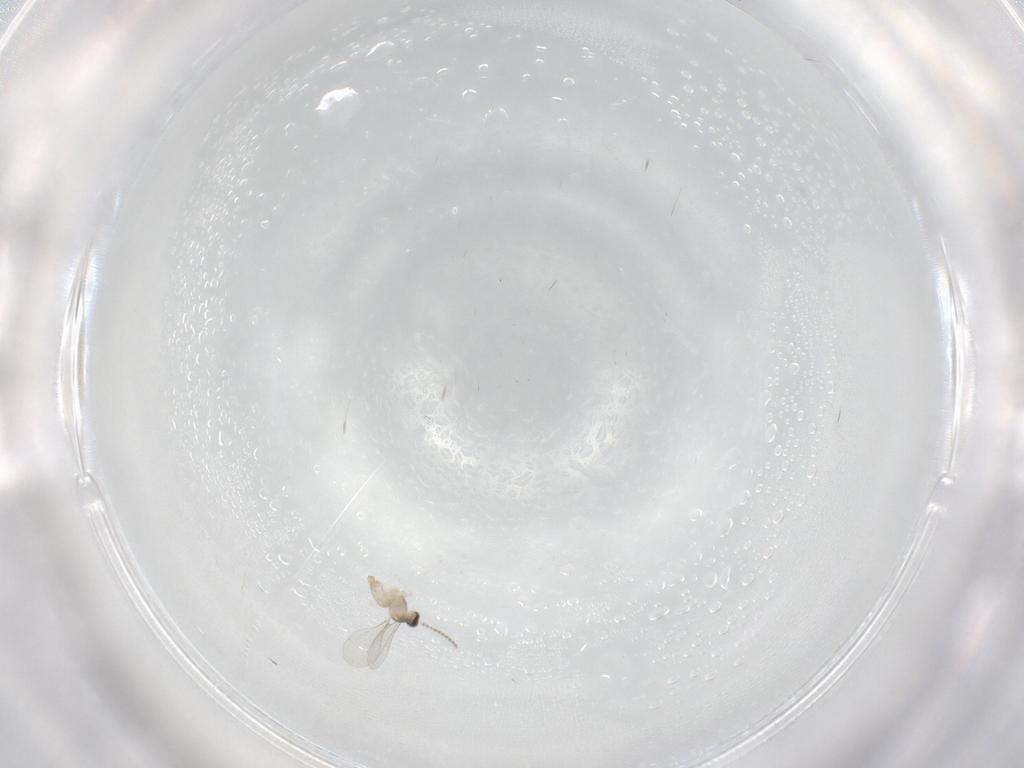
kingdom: Animalia
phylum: Arthropoda
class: Insecta
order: Diptera
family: Cecidomyiidae
